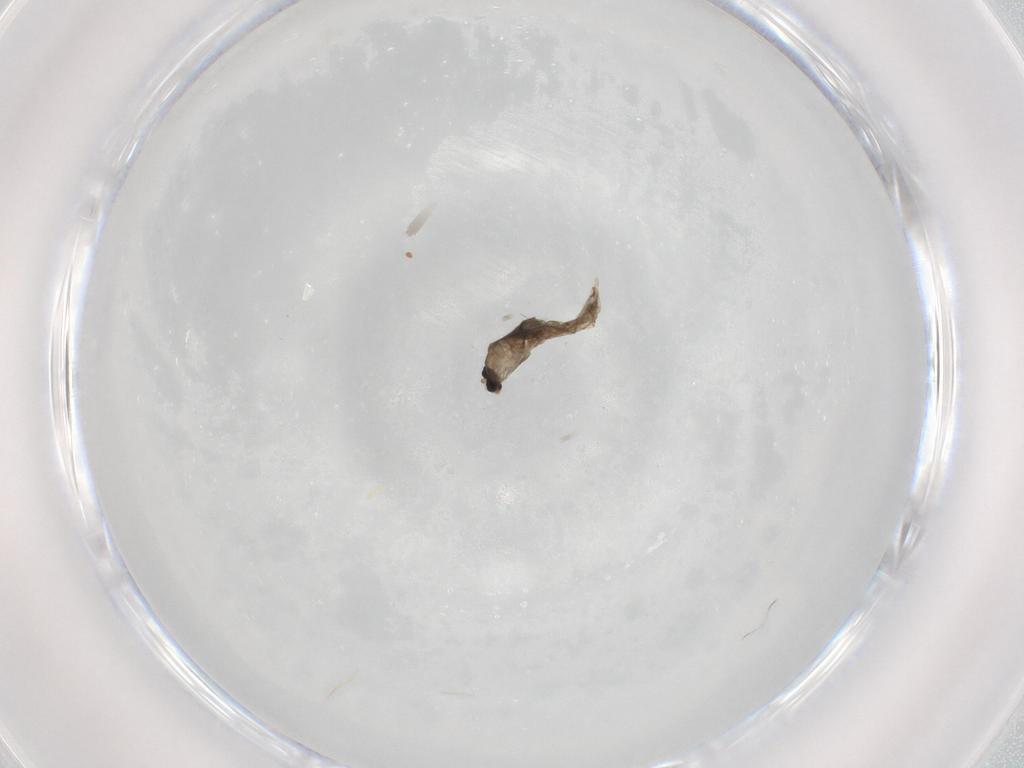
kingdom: Animalia
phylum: Arthropoda
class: Insecta
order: Diptera
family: Cecidomyiidae
